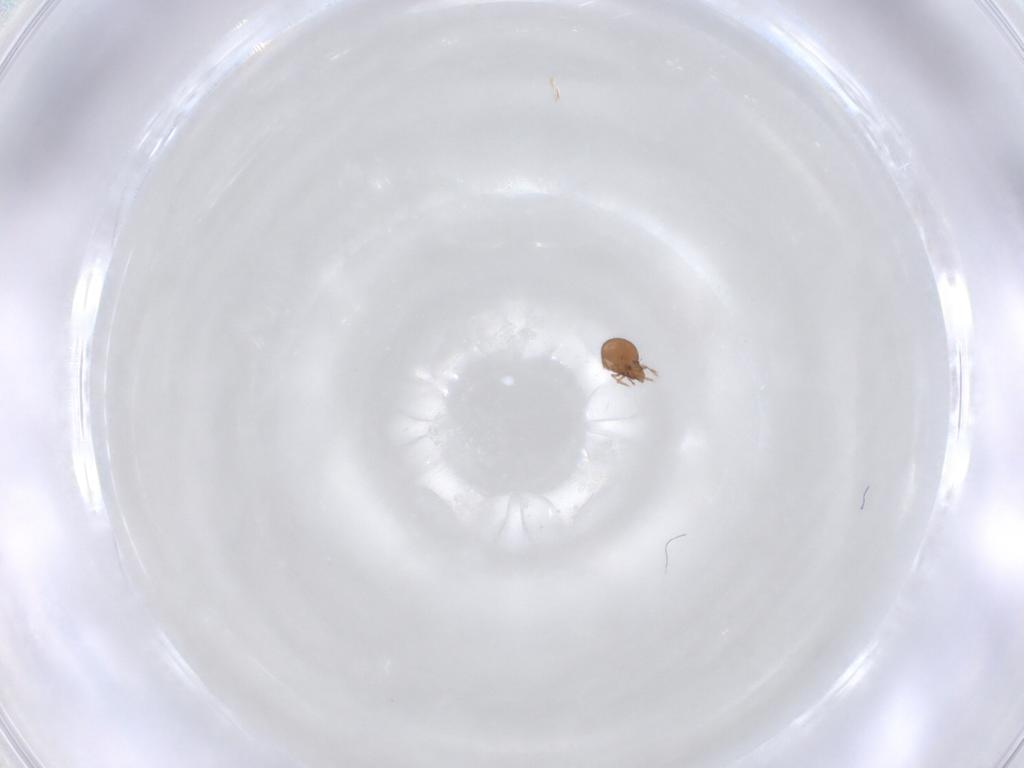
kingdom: Animalia
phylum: Arthropoda
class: Arachnida
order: Sarcoptiformes
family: Oribatulidae
